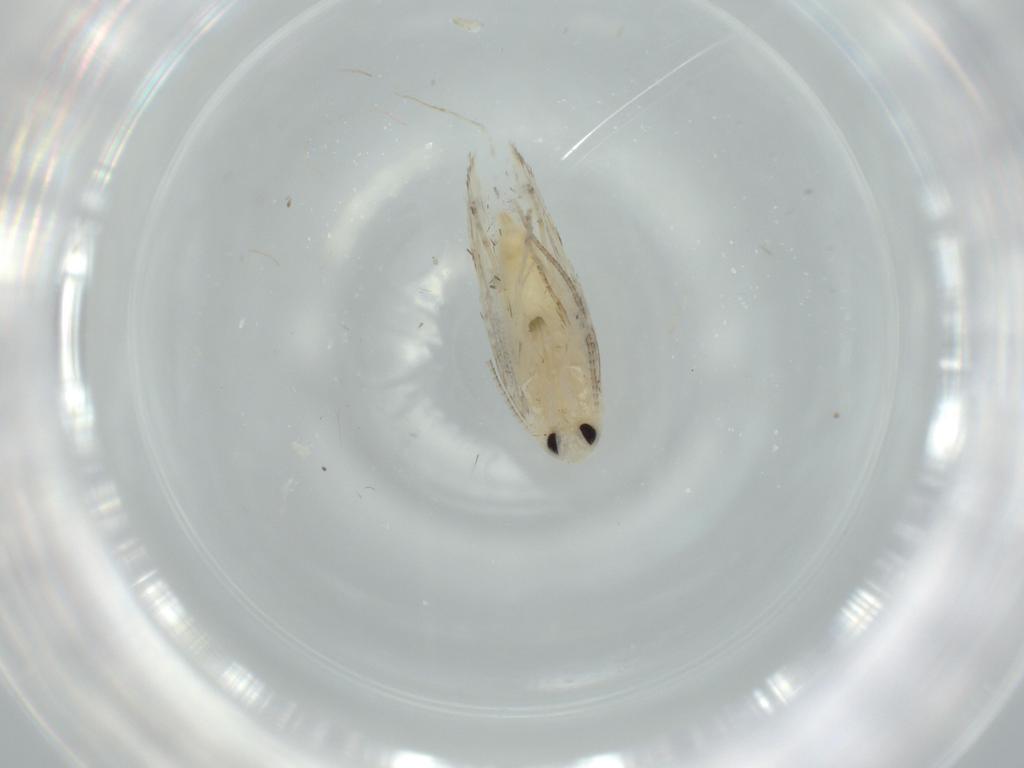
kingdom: Animalia
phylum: Arthropoda
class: Insecta
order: Lepidoptera
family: Lyonetiidae
